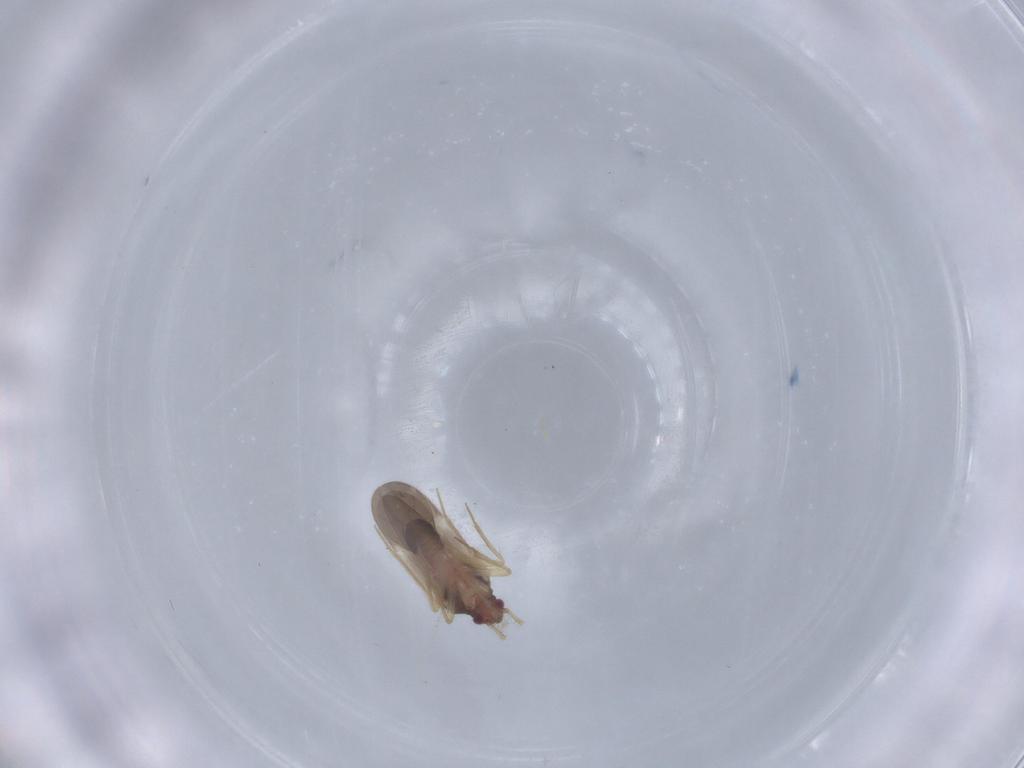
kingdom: Animalia
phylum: Arthropoda
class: Insecta
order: Hemiptera
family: Ceratocombidae
